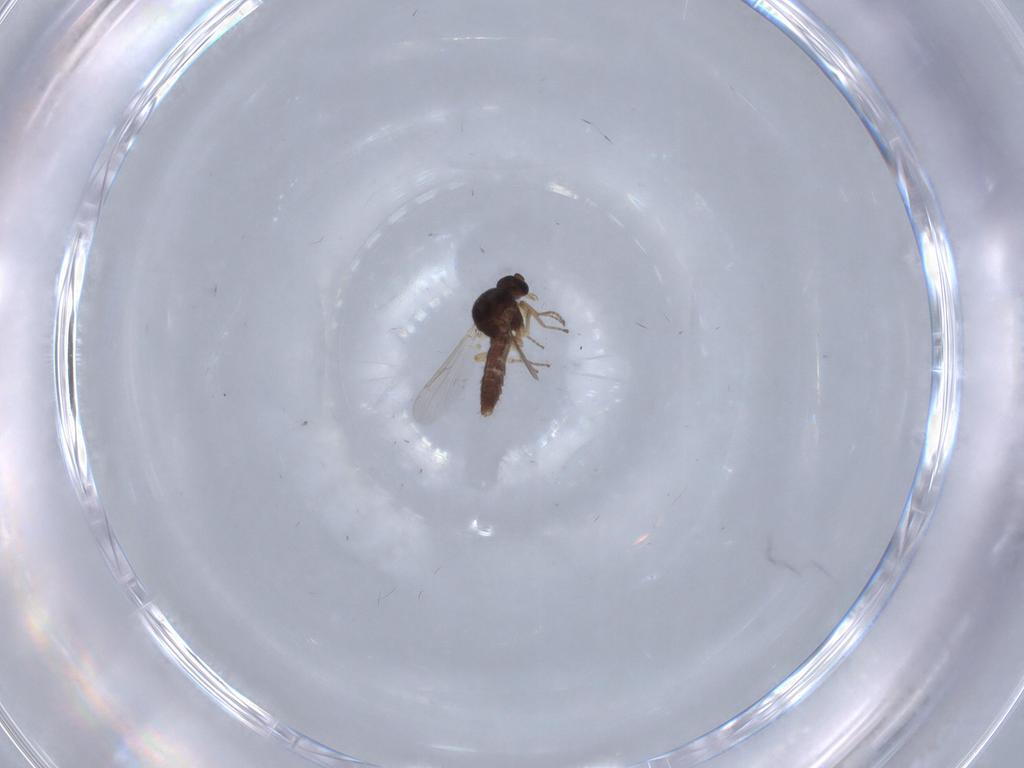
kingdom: Animalia
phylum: Arthropoda
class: Insecta
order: Diptera
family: Ceratopogonidae
